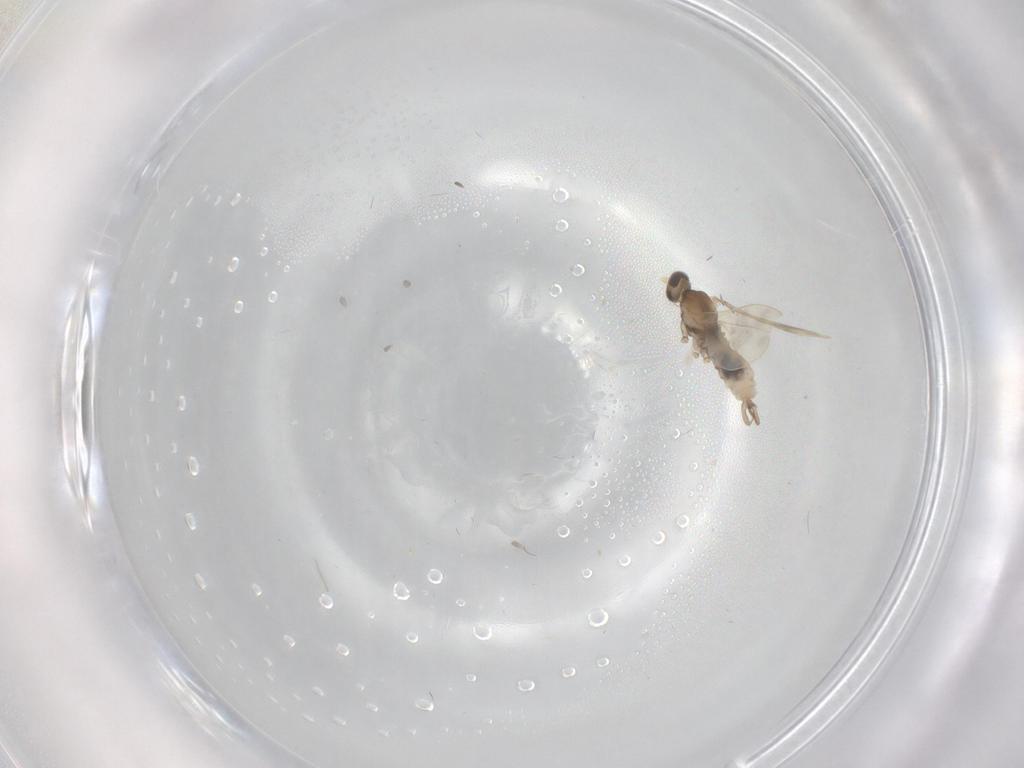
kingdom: Animalia
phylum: Arthropoda
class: Insecta
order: Diptera
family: Cecidomyiidae
